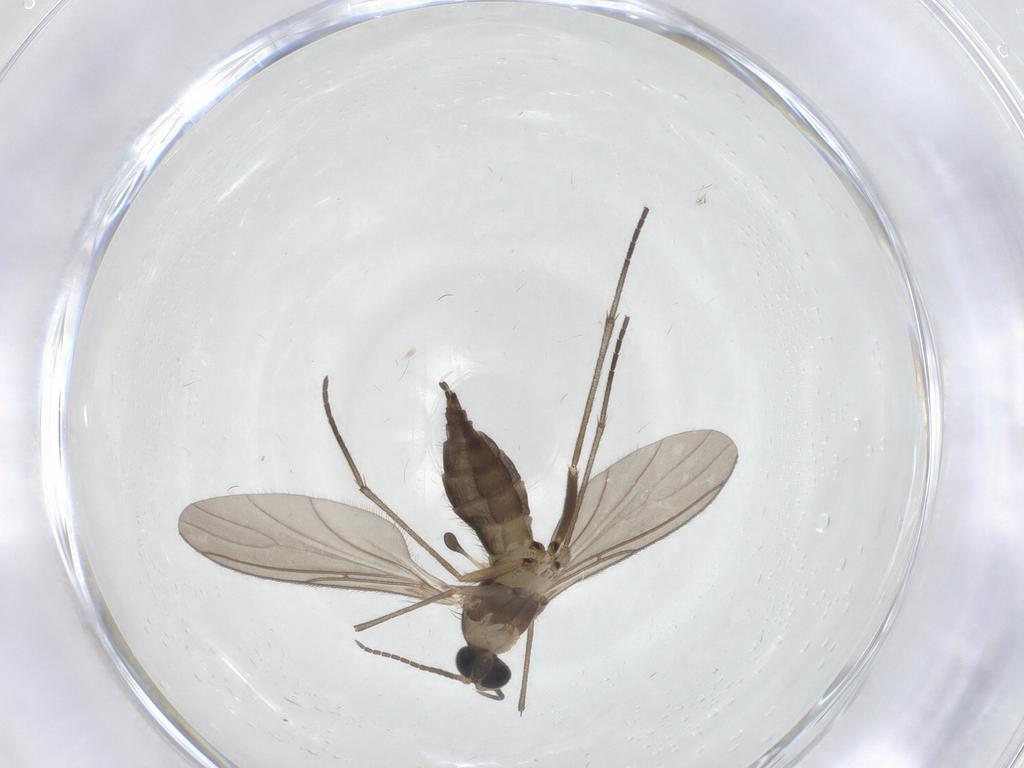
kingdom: Animalia
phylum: Arthropoda
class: Insecta
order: Diptera
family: Sciaridae
